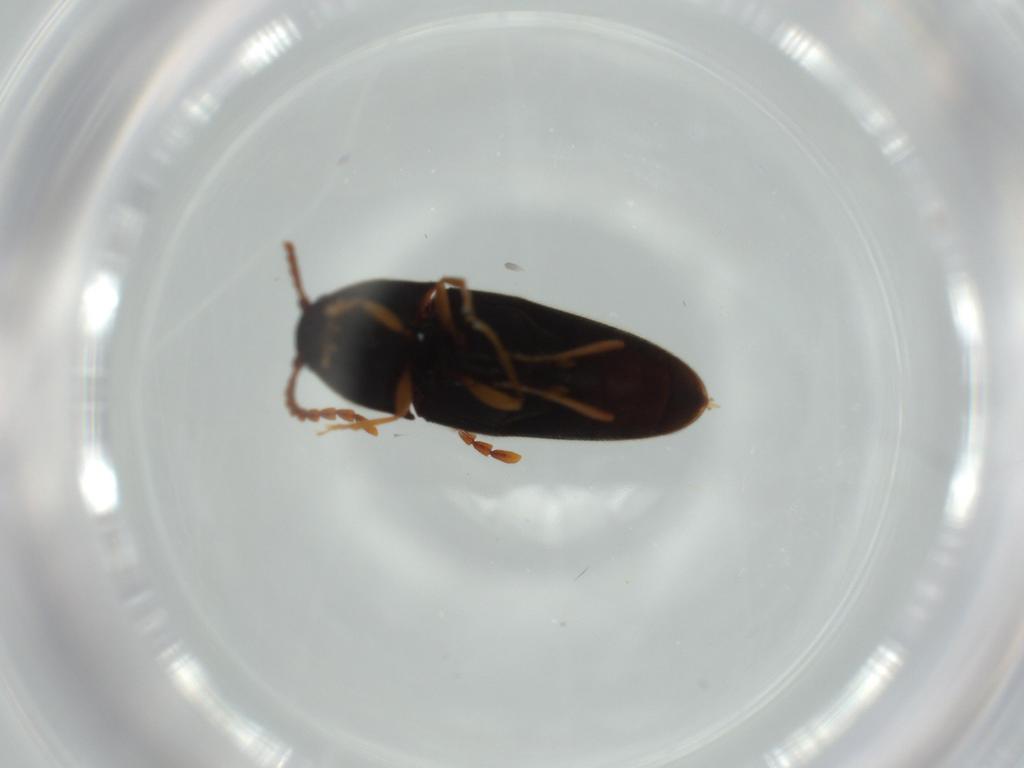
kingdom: Animalia
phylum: Arthropoda
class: Insecta
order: Coleoptera
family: Elateridae
